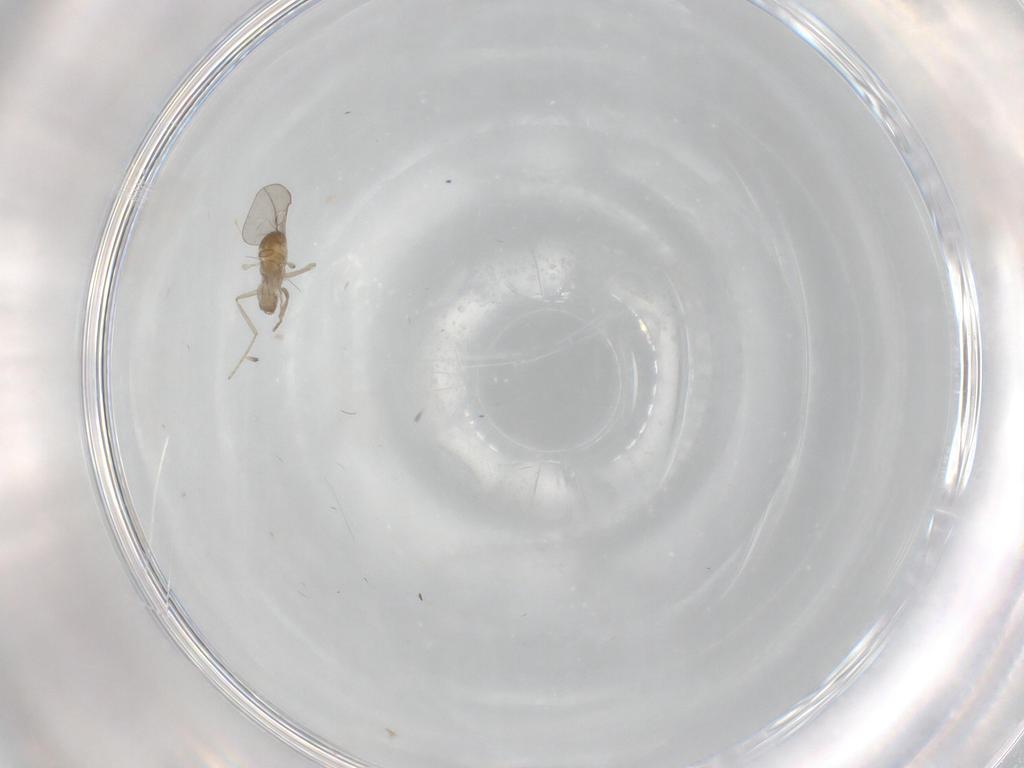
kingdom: Animalia
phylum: Arthropoda
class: Insecta
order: Diptera
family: Cecidomyiidae
